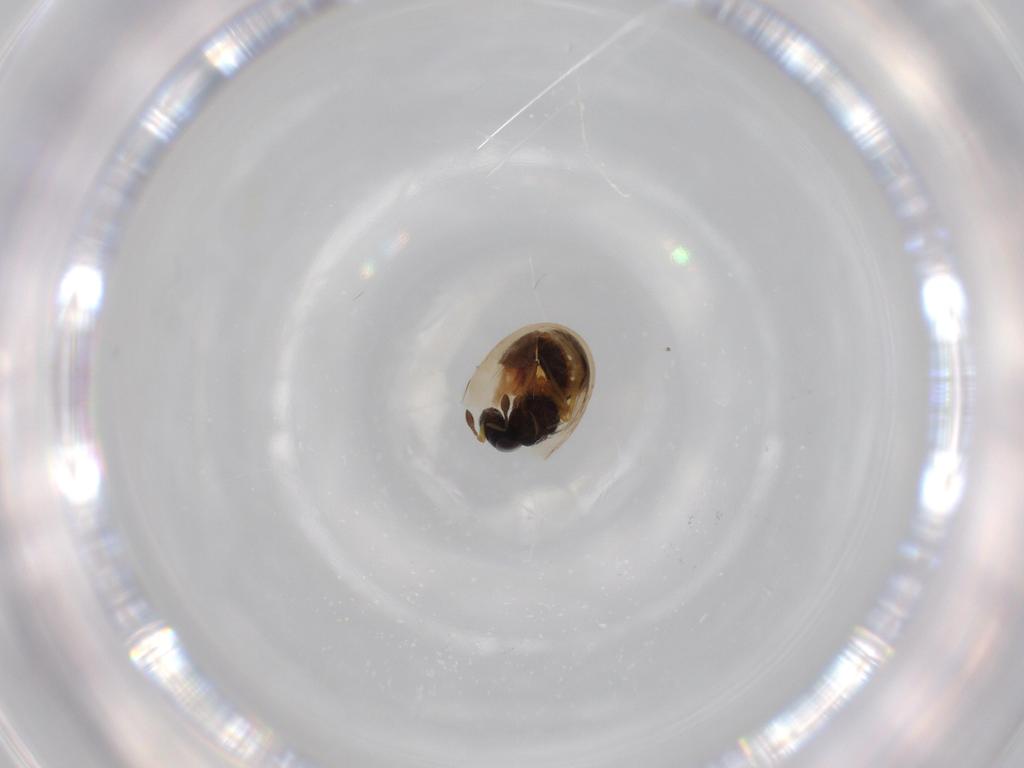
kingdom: Animalia
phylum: Arthropoda
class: Insecta
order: Hymenoptera
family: Scelionidae
